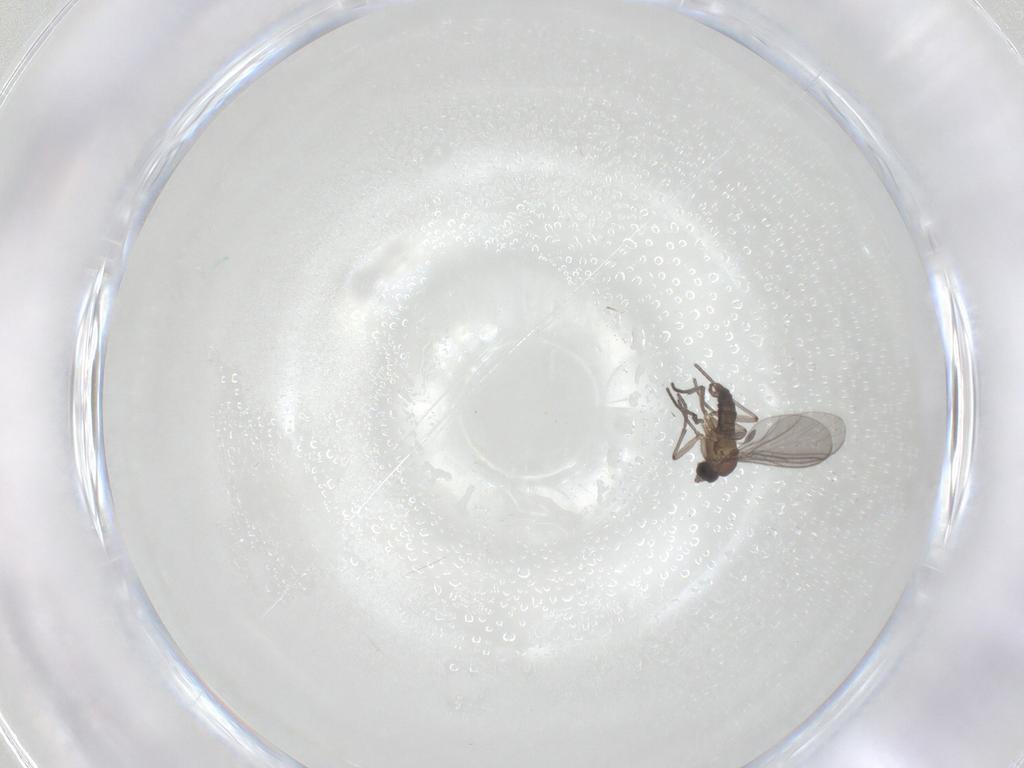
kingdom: Animalia
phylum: Arthropoda
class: Insecta
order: Diptera
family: Sciaridae
